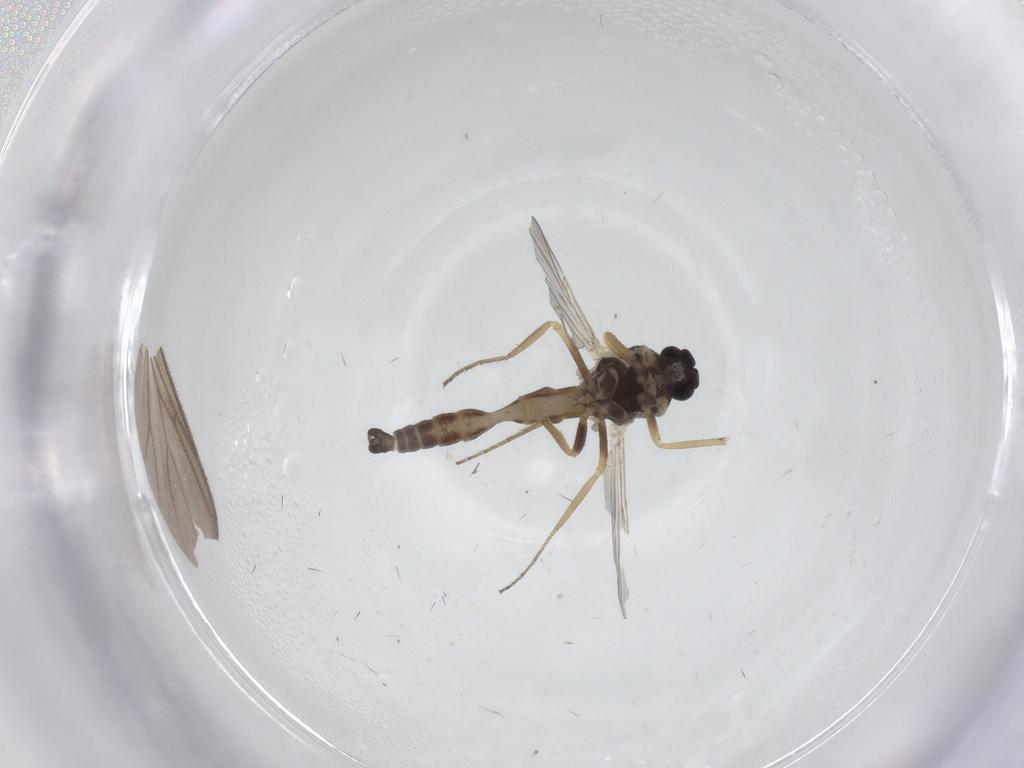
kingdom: Animalia
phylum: Arthropoda
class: Insecta
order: Diptera
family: Ceratopogonidae
